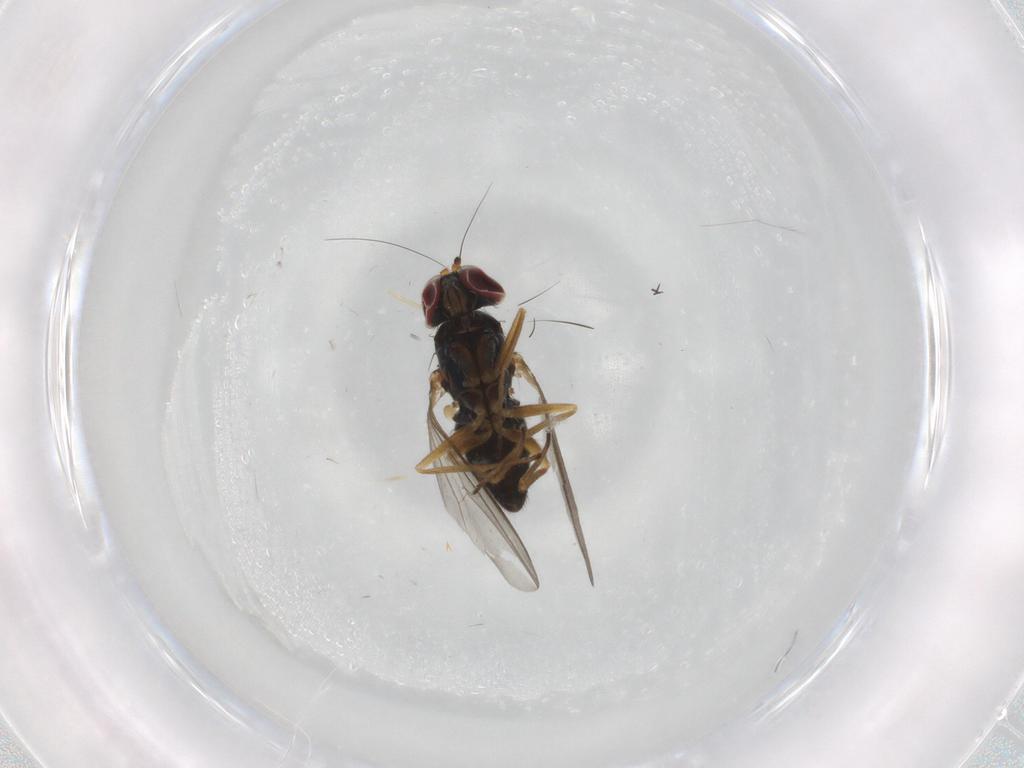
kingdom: Animalia
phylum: Arthropoda
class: Insecta
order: Diptera
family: Dolichopodidae
